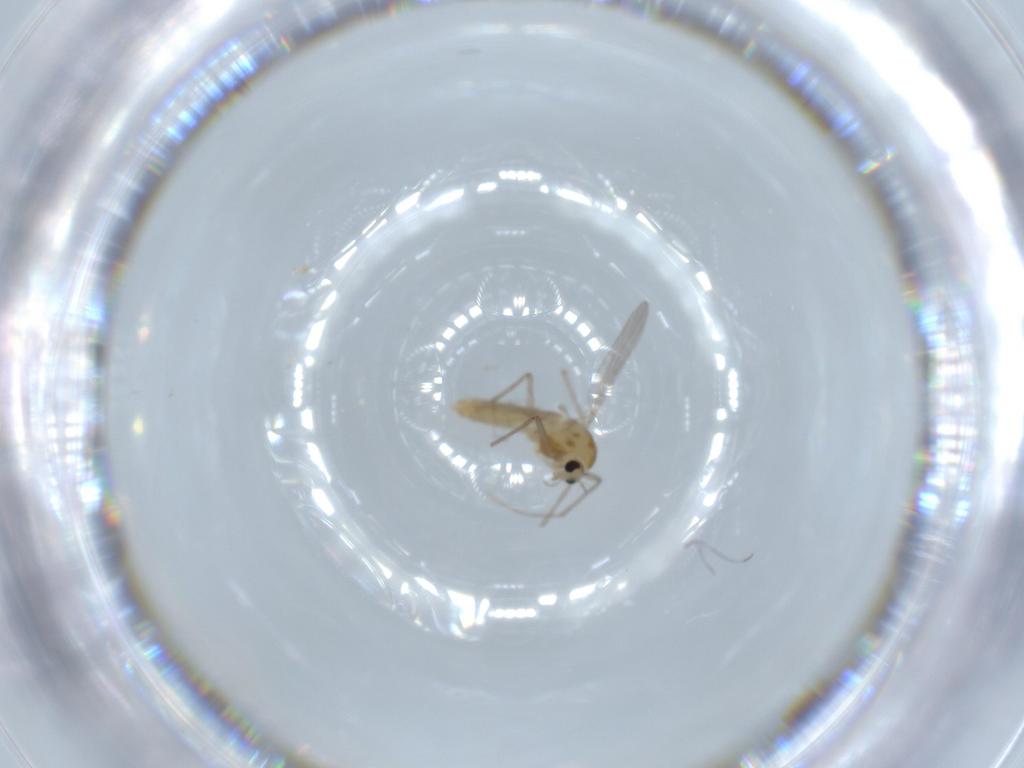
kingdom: Animalia
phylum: Arthropoda
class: Insecta
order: Diptera
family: Chironomidae
